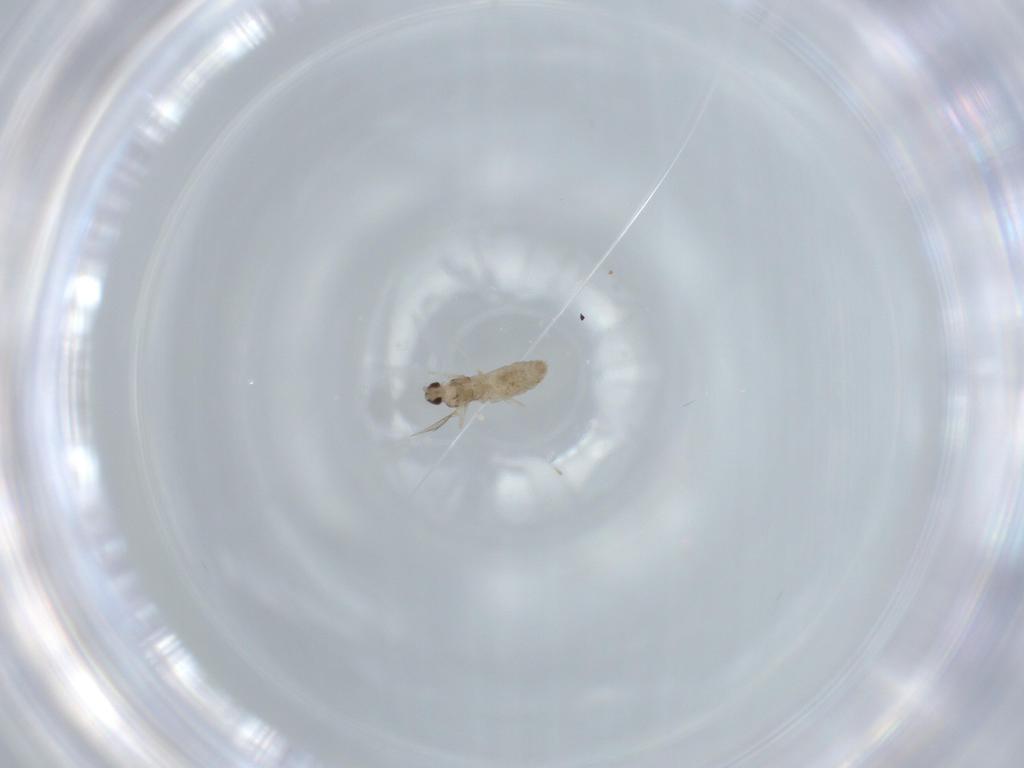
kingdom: Animalia
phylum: Arthropoda
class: Insecta
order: Diptera
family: Cecidomyiidae
